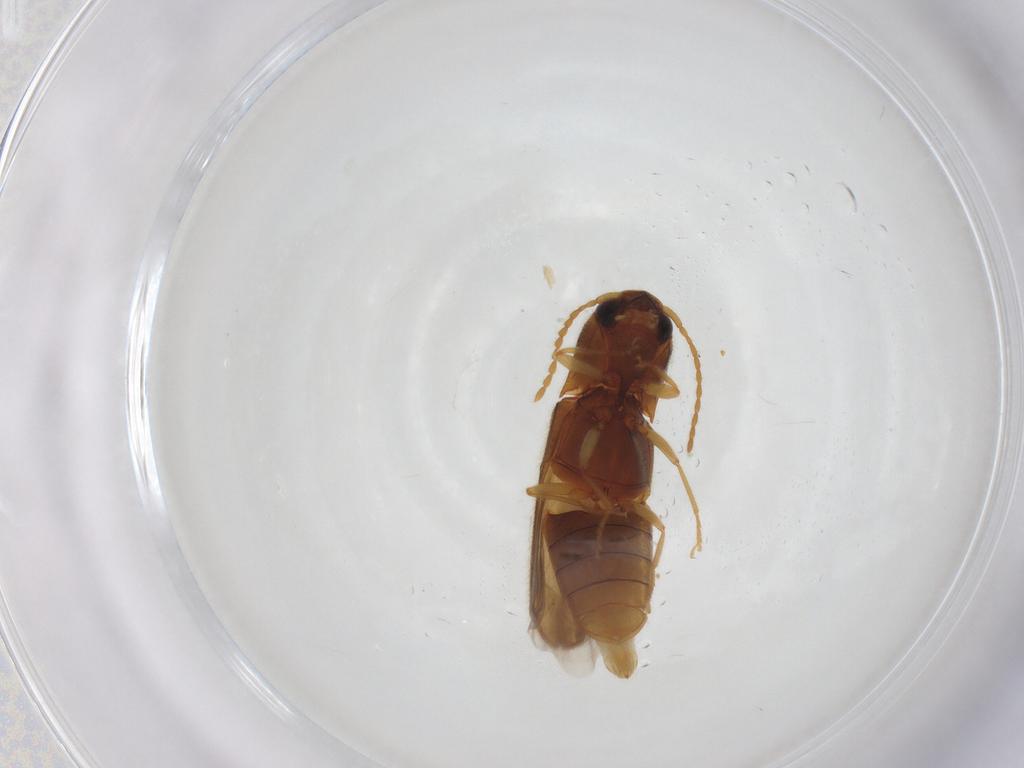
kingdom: Animalia
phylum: Arthropoda
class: Insecta
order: Coleoptera
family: Elateridae
